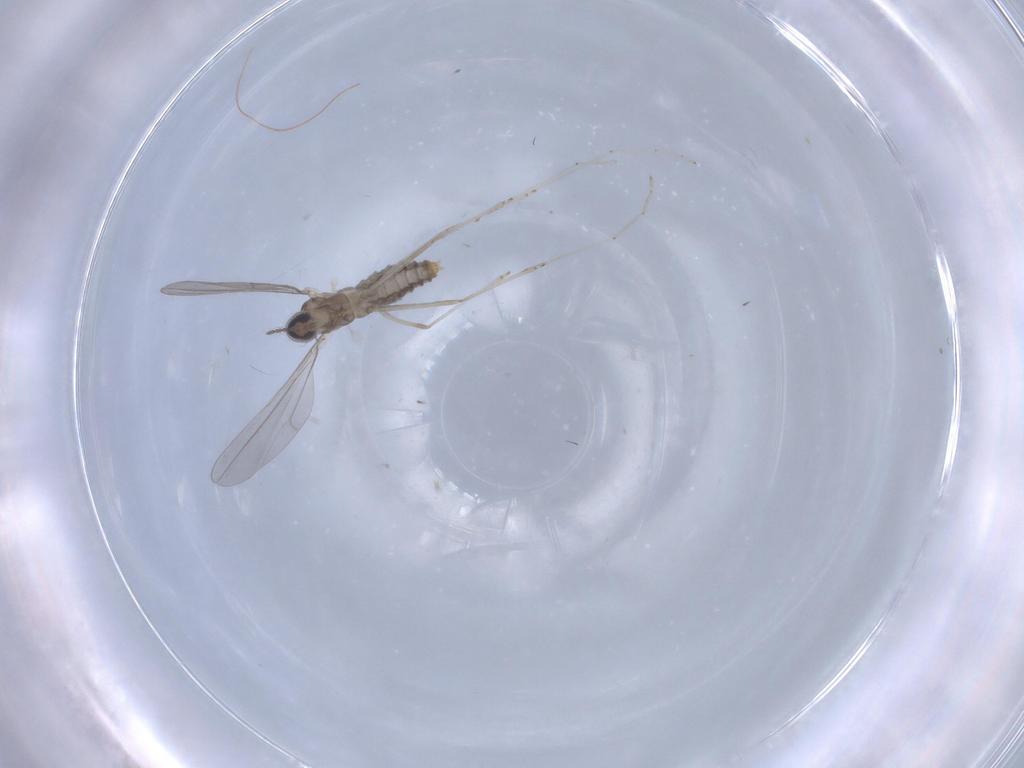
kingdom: Animalia
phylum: Arthropoda
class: Insecta
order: Diptera
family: Cecidomyiidae
